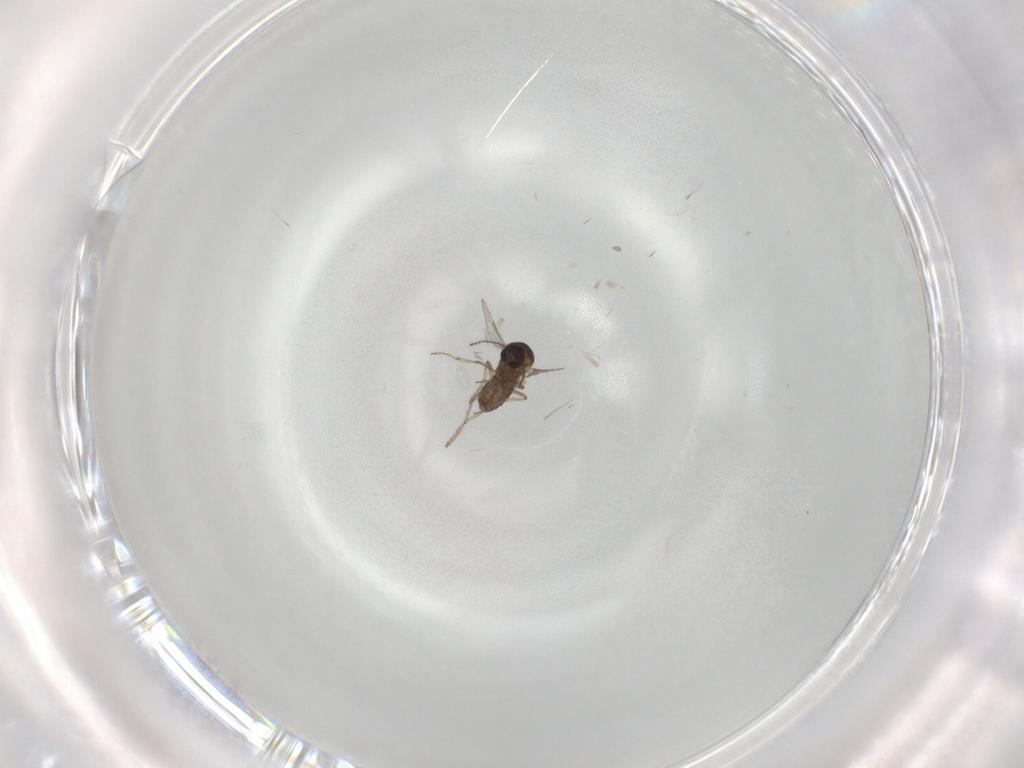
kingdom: Animalia
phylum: Arthropoda
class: Insecta
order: Diptera
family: Ceratopogonidae
